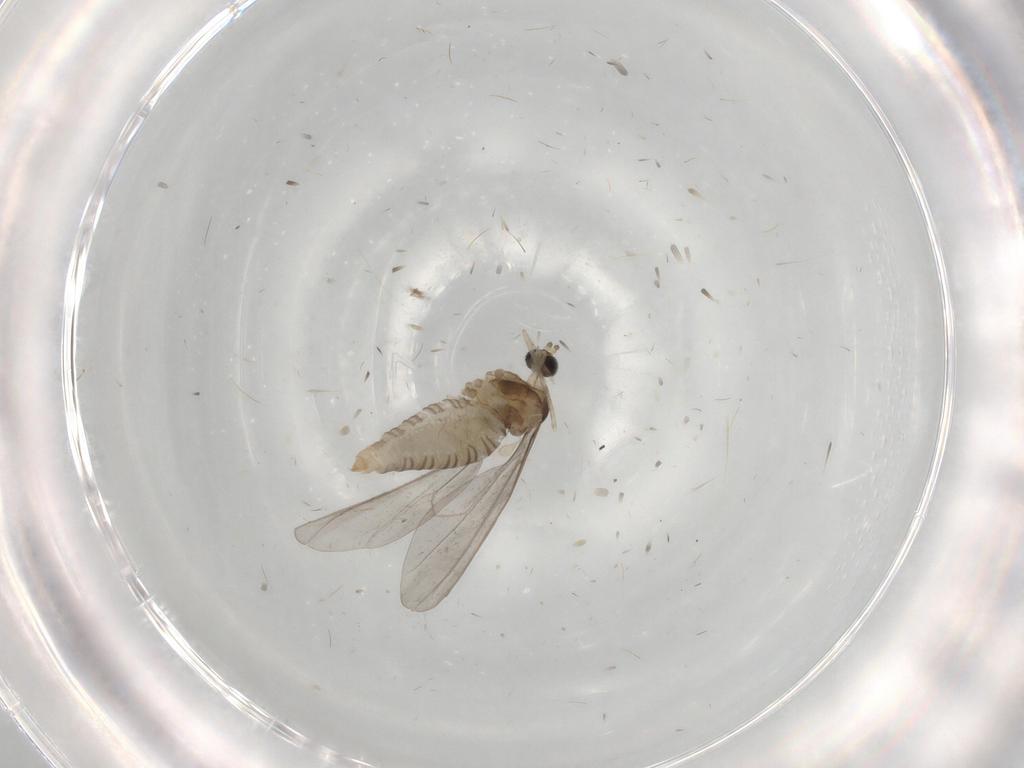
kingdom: Animalia
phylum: Arthropoda
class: Insecta
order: Diptera
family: Cecidomyiidae
